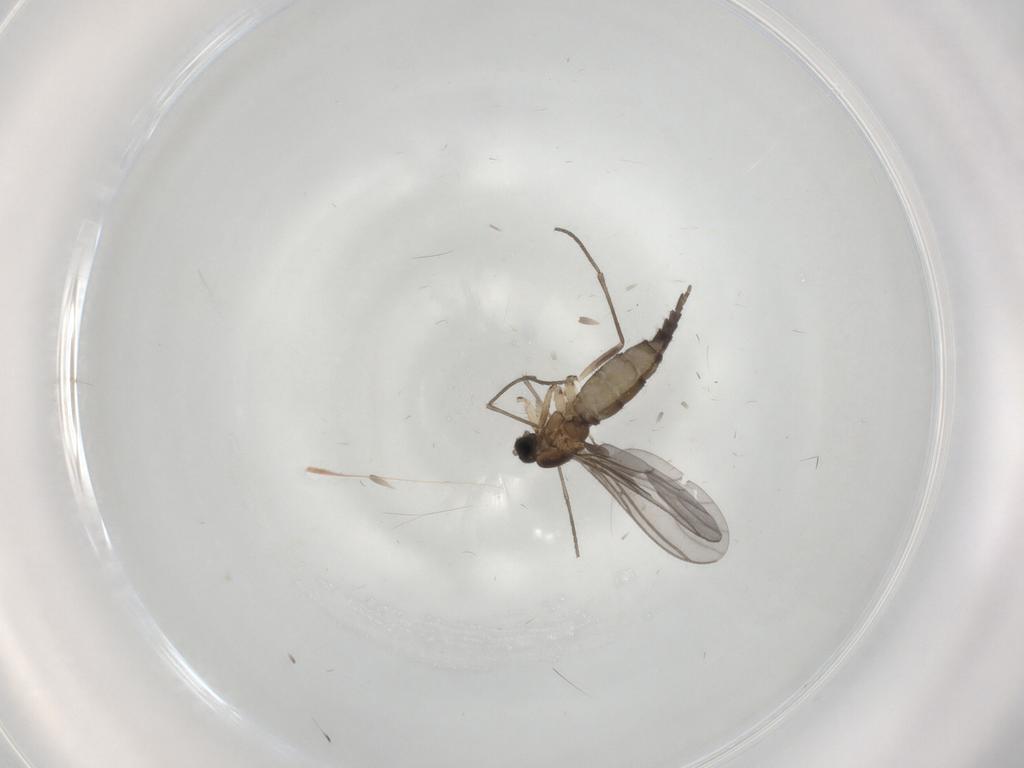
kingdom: Animalia
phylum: Arthropoda
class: Insecta
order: Diptera
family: Sciaridae
